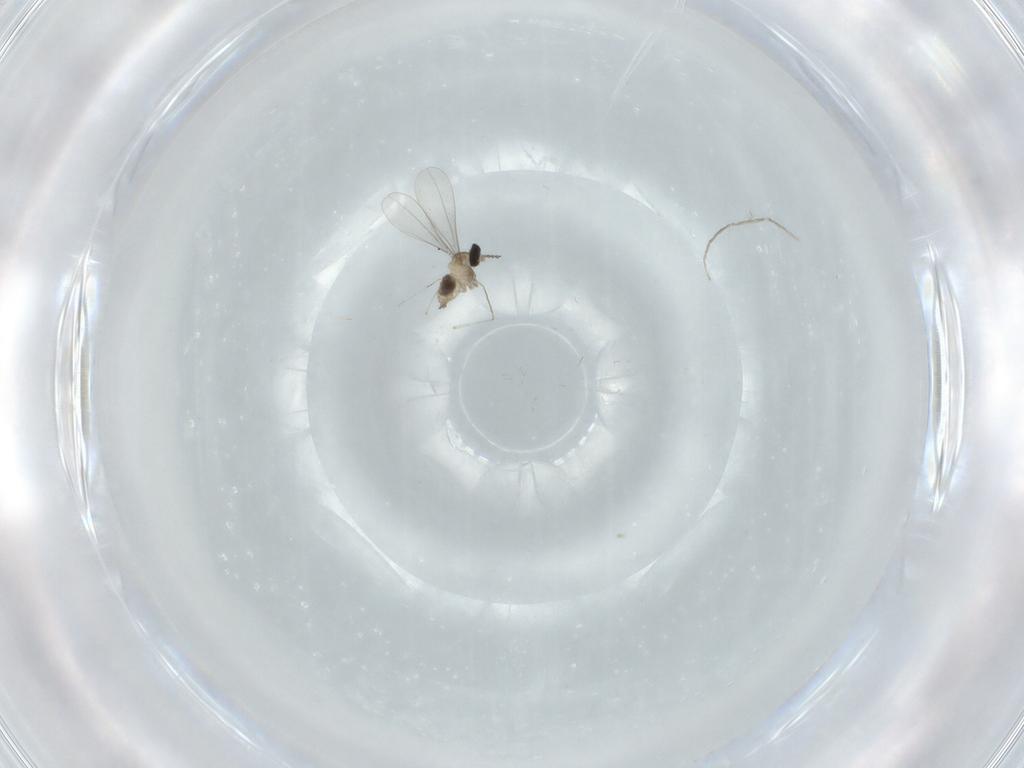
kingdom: Animalia
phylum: Arthropoda
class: Insecta
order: Diptera
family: Cecidomyiidae
